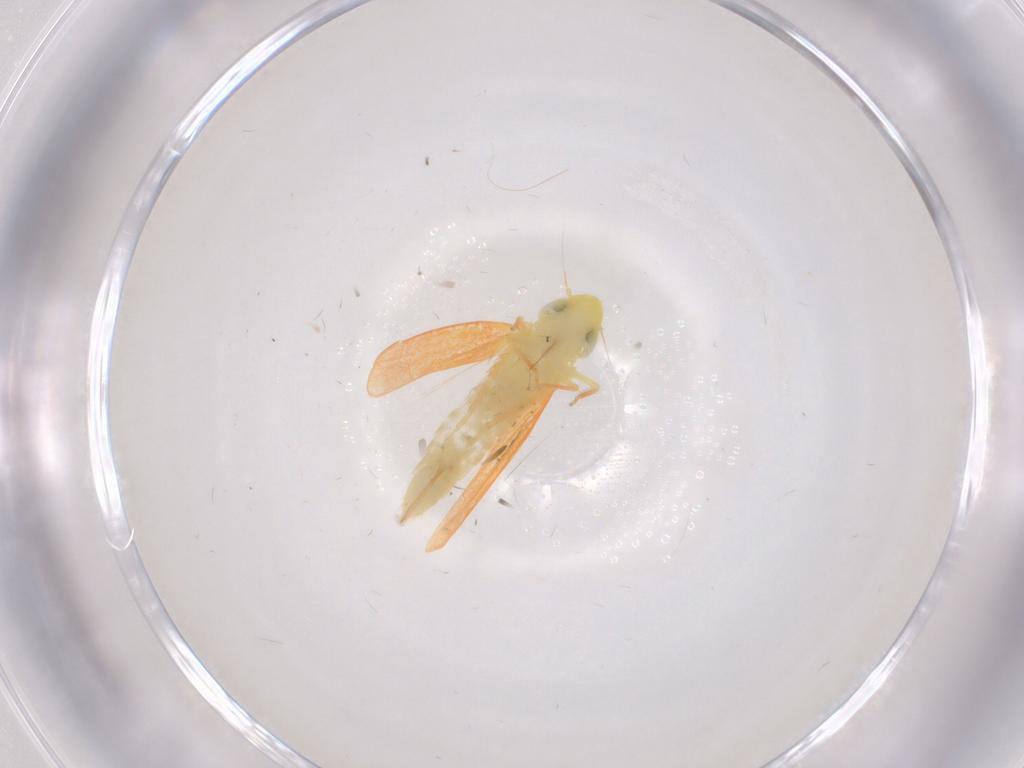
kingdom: Animalia
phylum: Arthropoda
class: Insecta
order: Hemiptera
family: Cicadellidae
